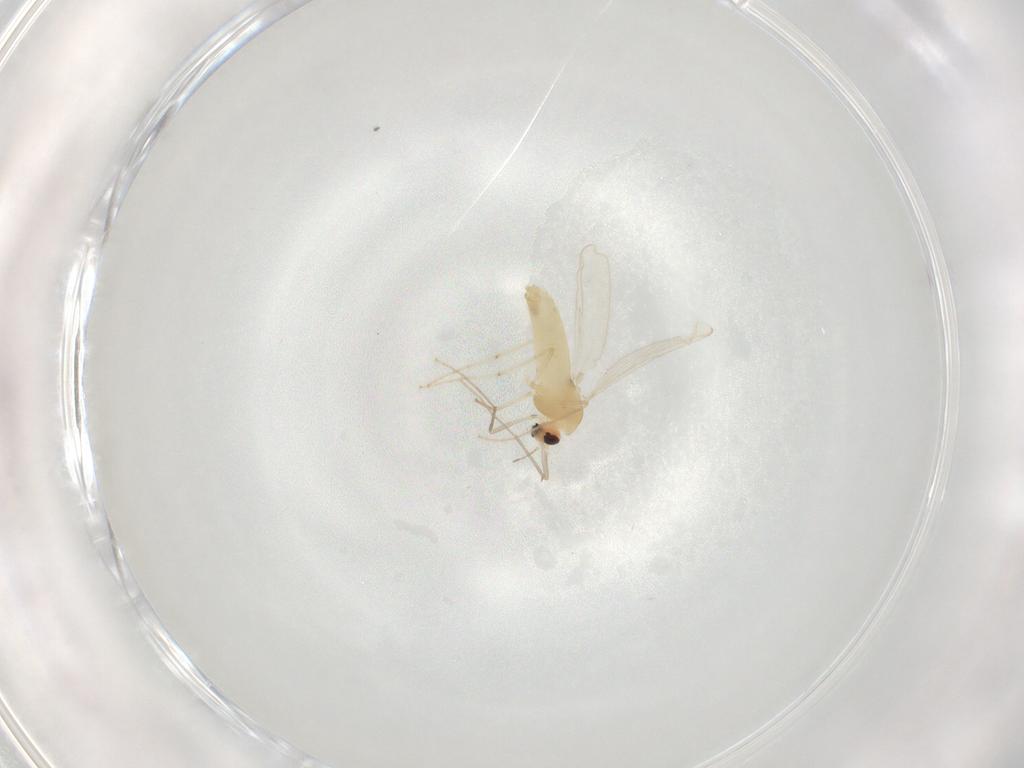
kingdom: Animalia
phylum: Arthropoda
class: Insecta
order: Diptera
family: Chironomidae
